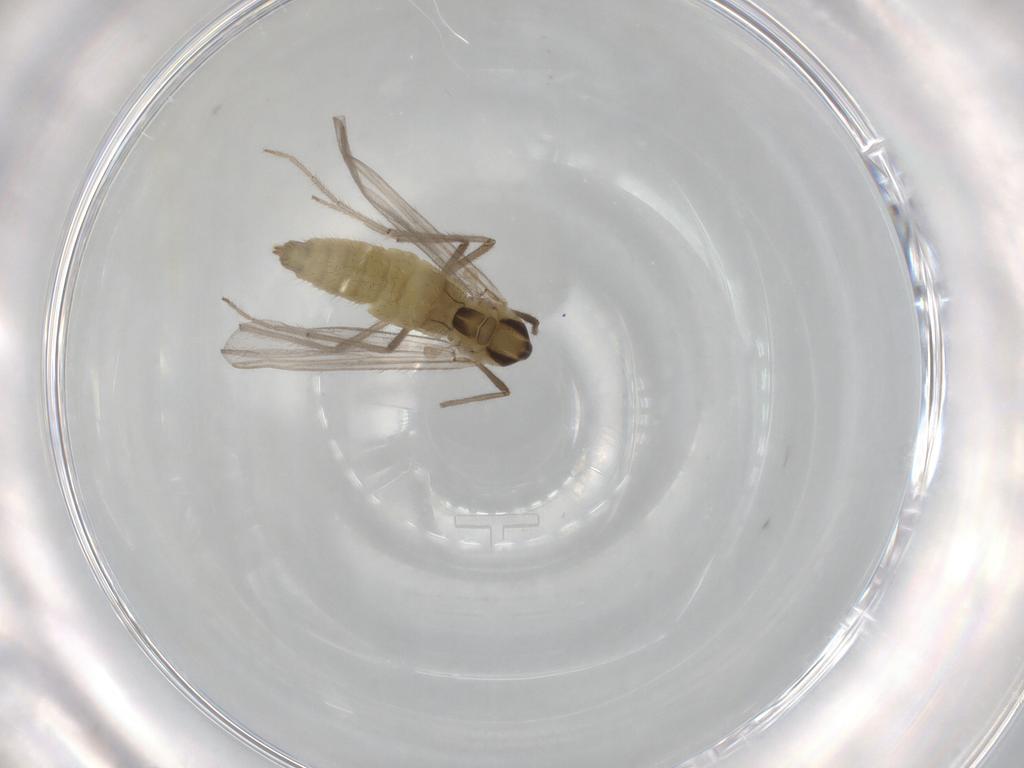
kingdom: Animalia
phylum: Arthropoda
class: Insecta
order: Diptera
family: Chironomidae
